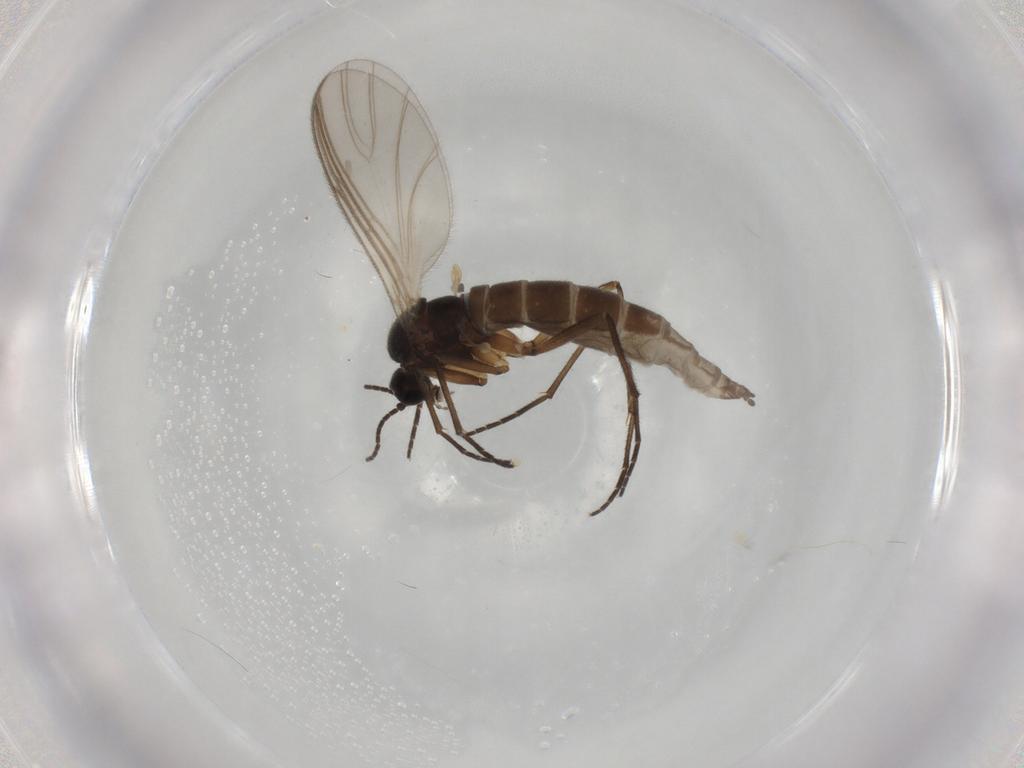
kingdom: Animalia
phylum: Arthropoda
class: Insecta
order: Diptera
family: Sciaridae
